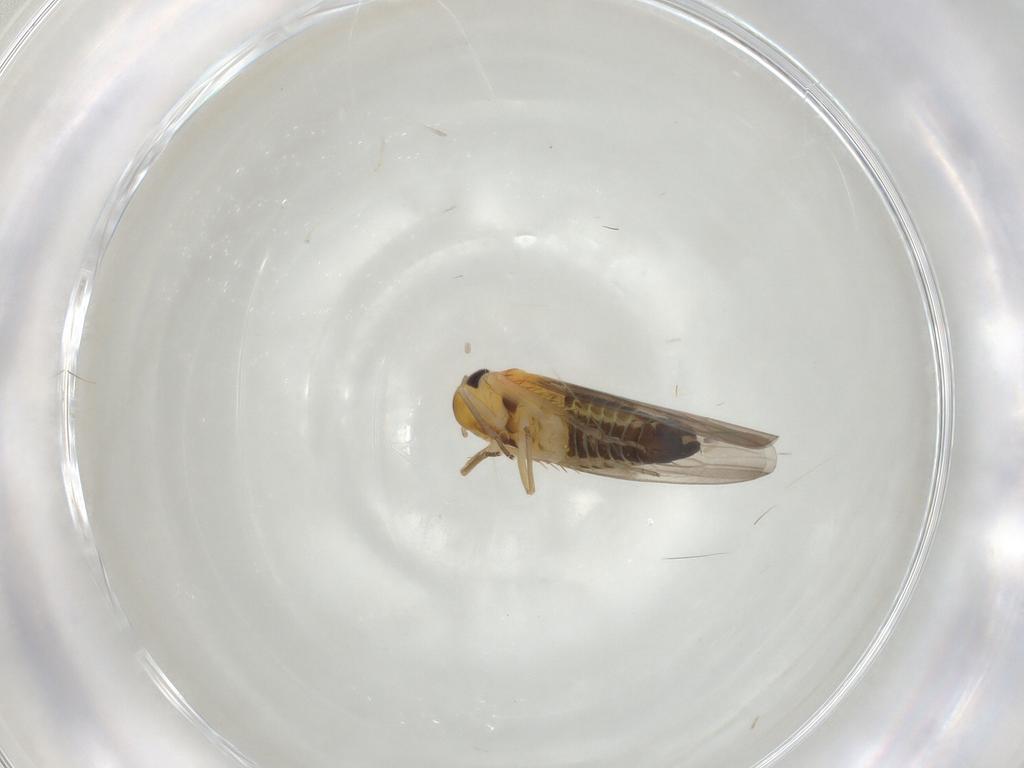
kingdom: Animalia
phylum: Arthropoda
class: Insecta
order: Hemiptera
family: Cicadellidae
